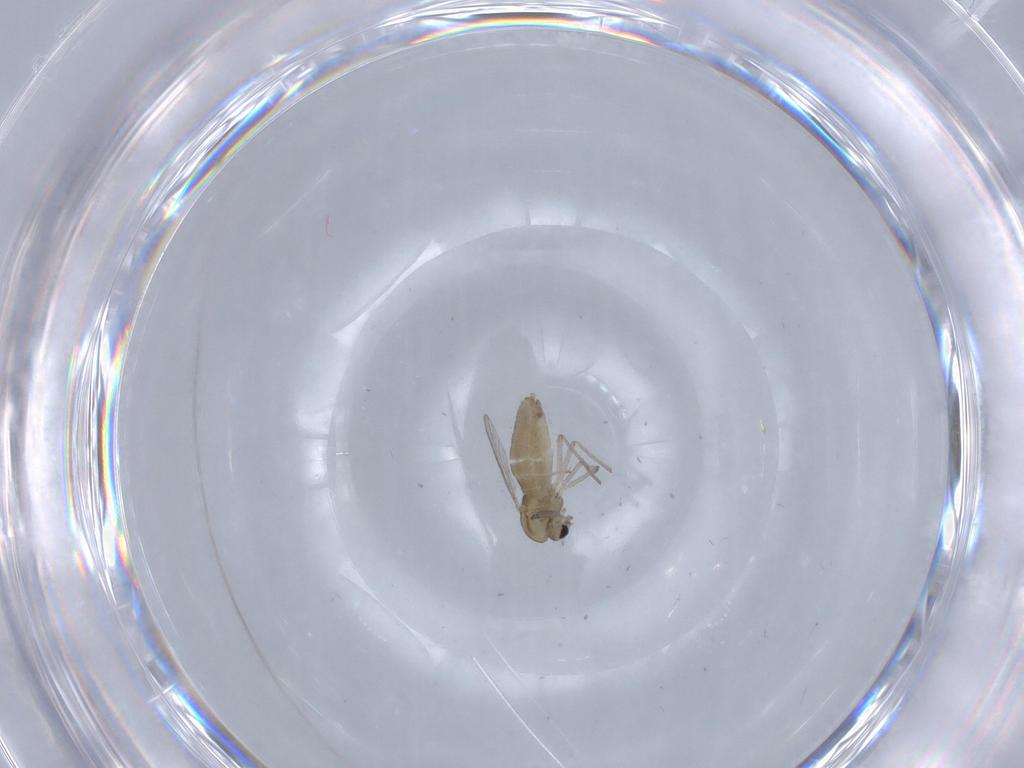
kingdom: Animalia
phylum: Arthropoda
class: Insecta
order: Diptera
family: Chironomidae
